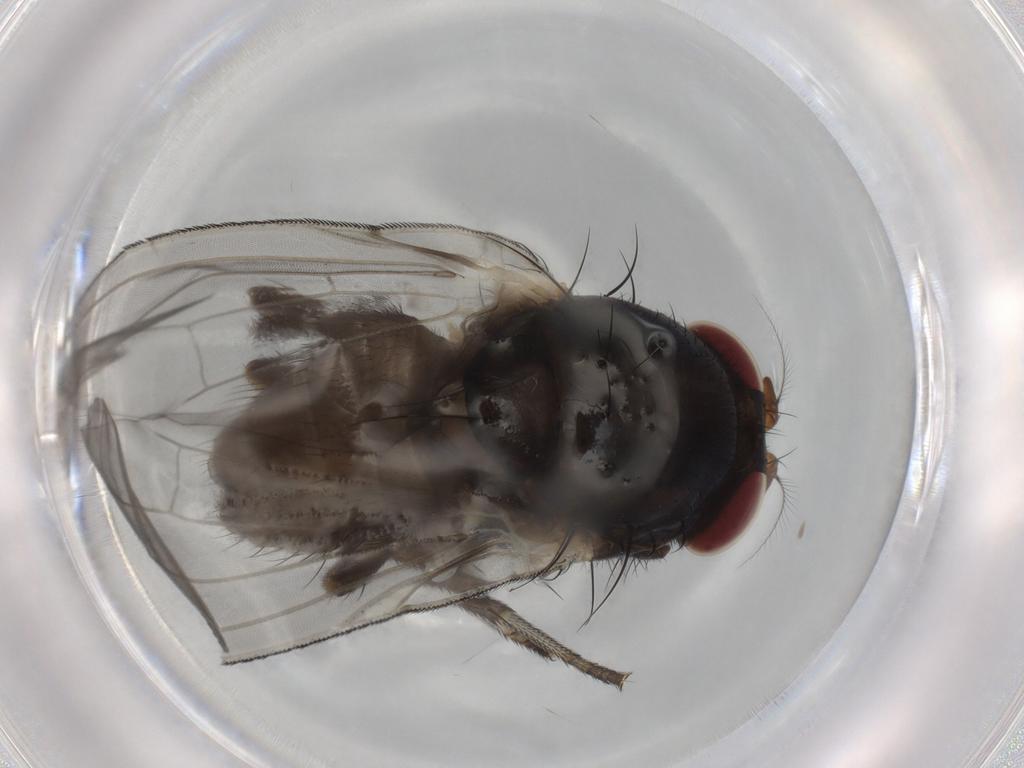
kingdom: Animalia
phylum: Arthropoda
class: Insecta
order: Diptera
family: Lauxaniidae
